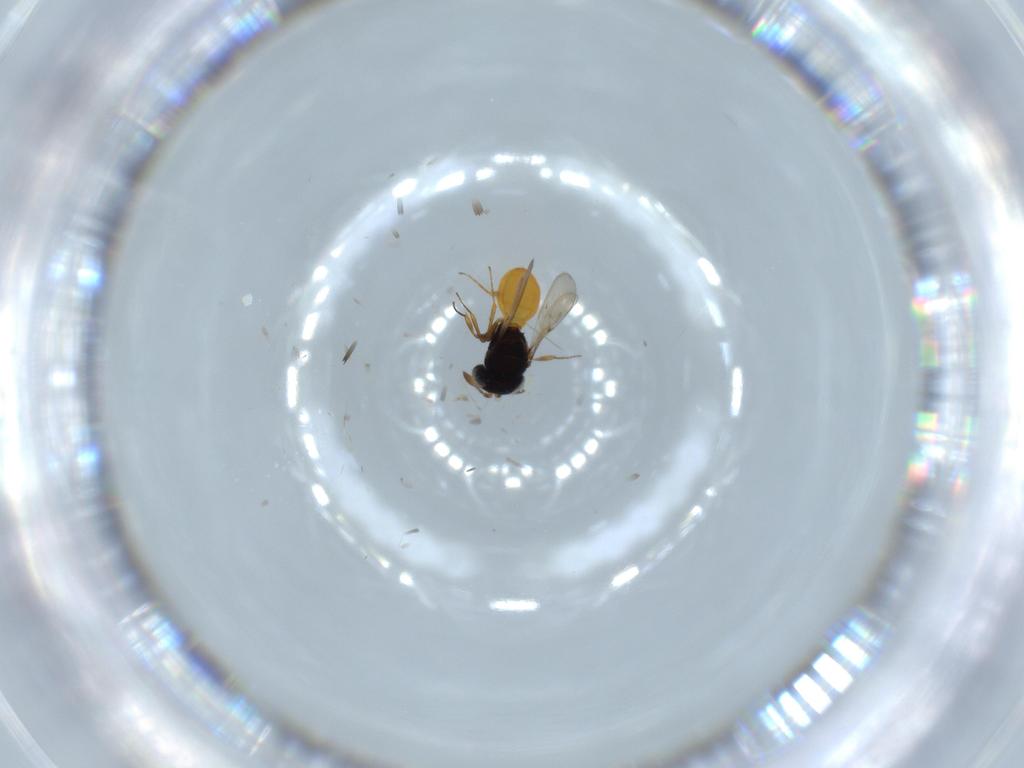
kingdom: Animalia
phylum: Arthropoda
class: Insecta
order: Hymenoptera
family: Scelionidae
